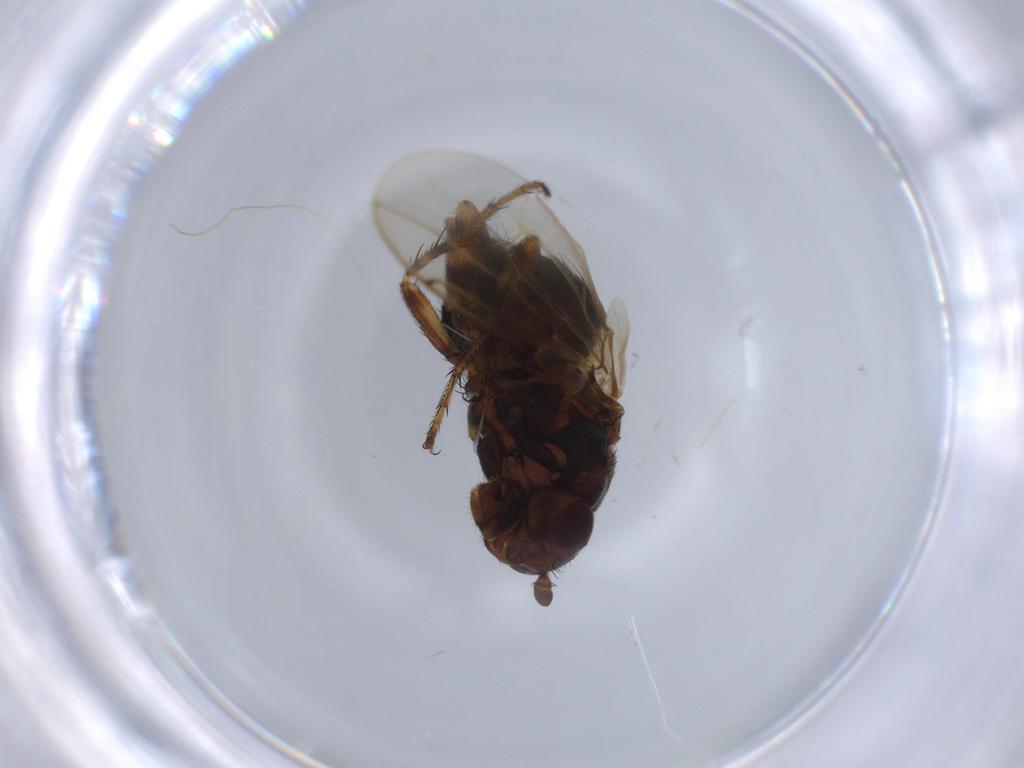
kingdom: Animalia
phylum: Arthropoda
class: Insecta
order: Diptera
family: Sphaeroceridae
